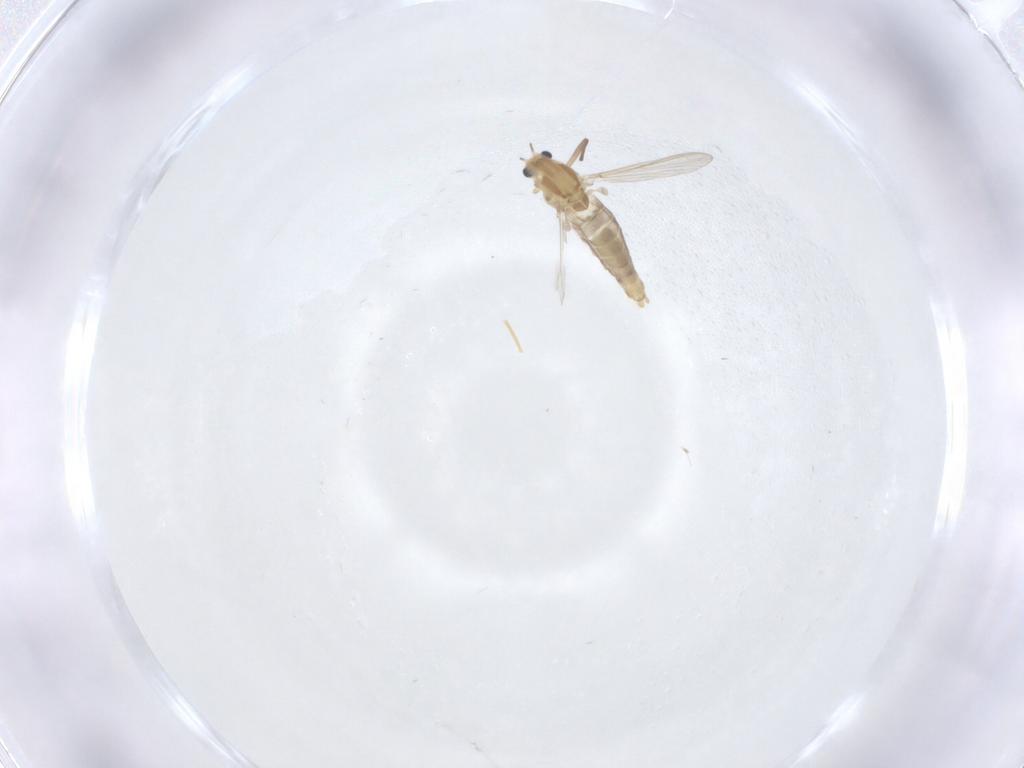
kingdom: Animalia
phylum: Arthropoda
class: Insecta
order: Diptera
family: Chironomidae
